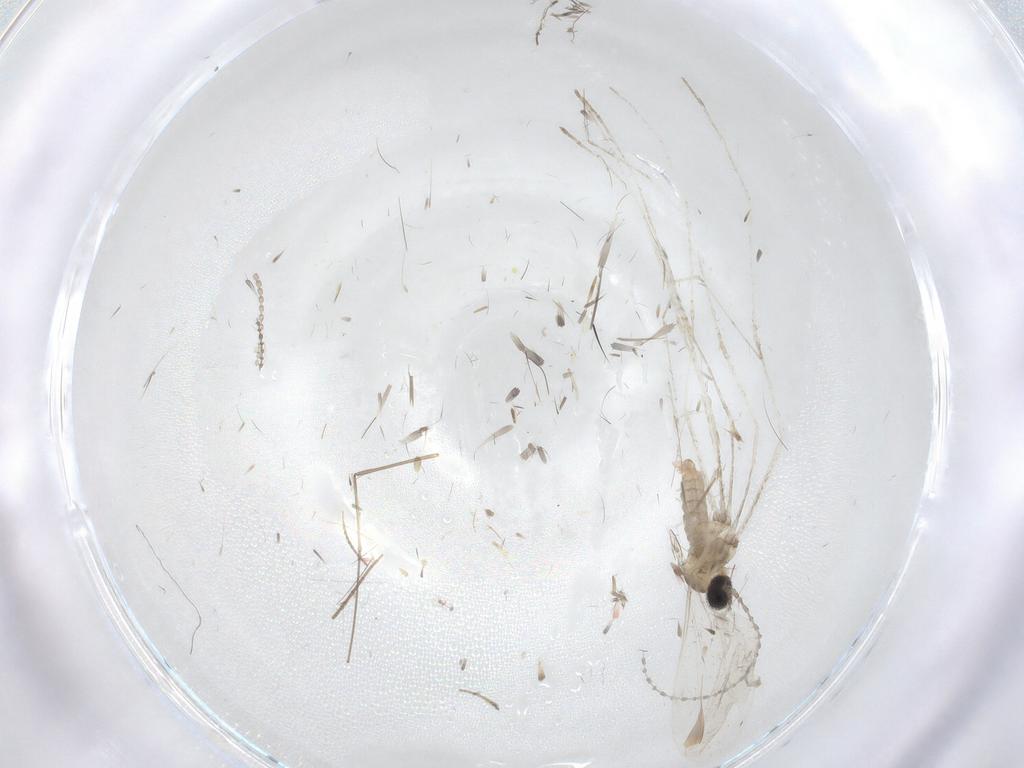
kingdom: Animalia
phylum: Arthropoda
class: Insecta
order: Diptera
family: Cecidomyiidae
